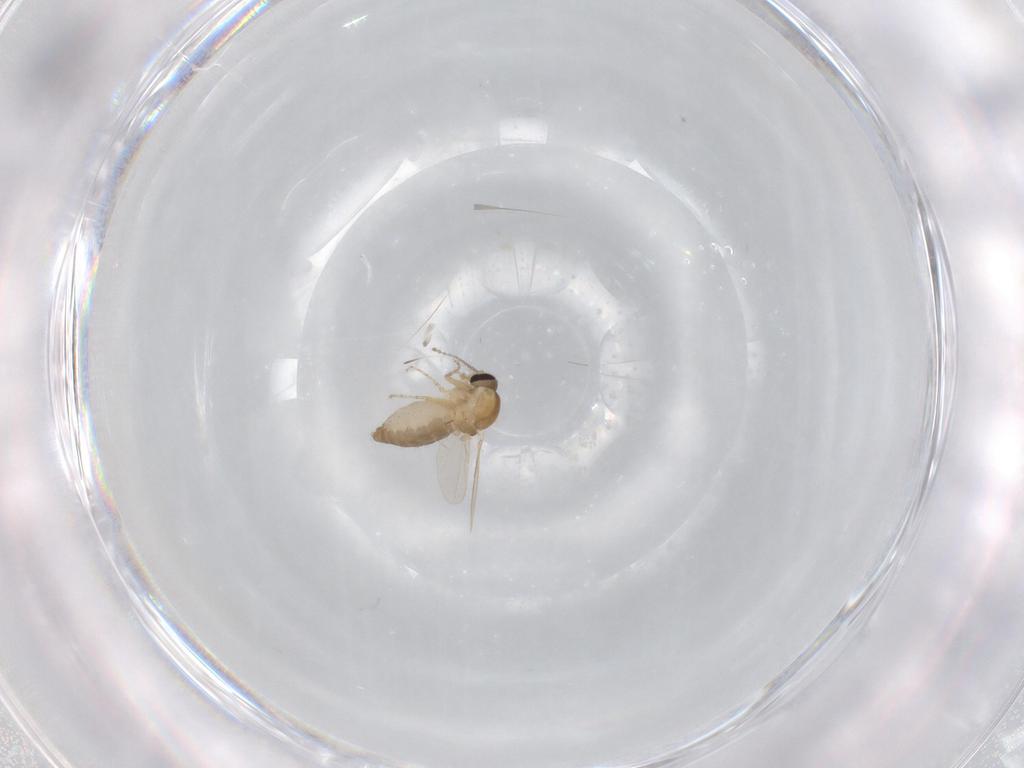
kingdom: Animalia
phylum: Arthropoda
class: Insecta
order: Diptera
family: Ceratopogonidae
